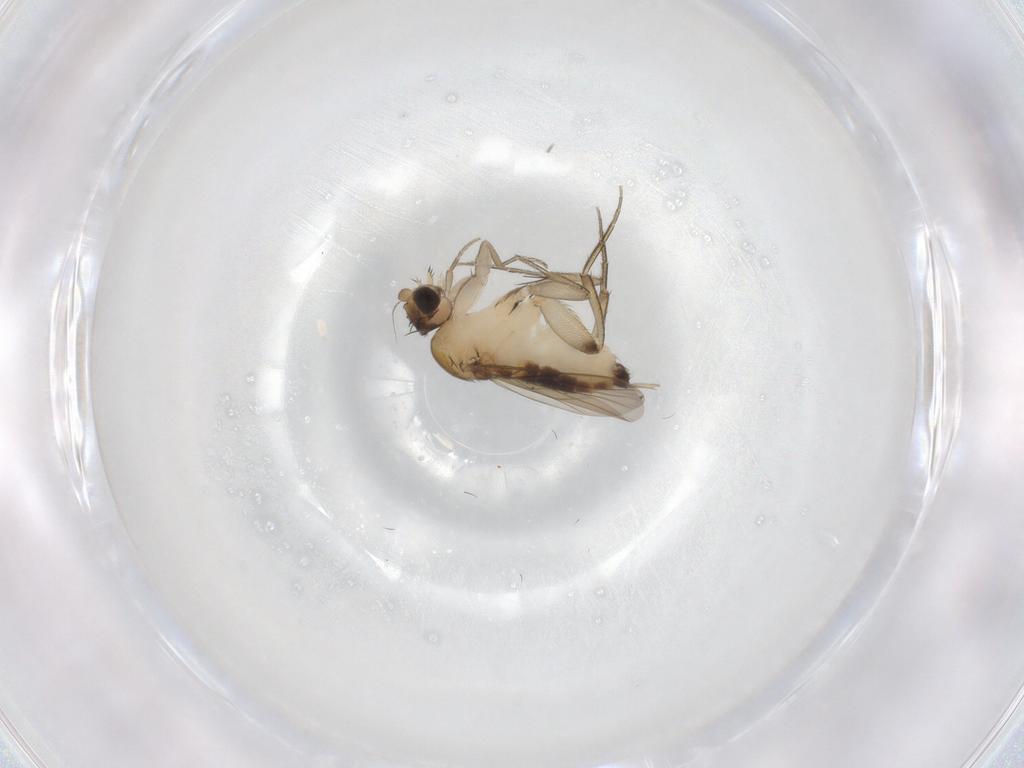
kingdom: Animalia
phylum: Arthropoda
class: Insecta
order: Diptera
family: Phoridae
